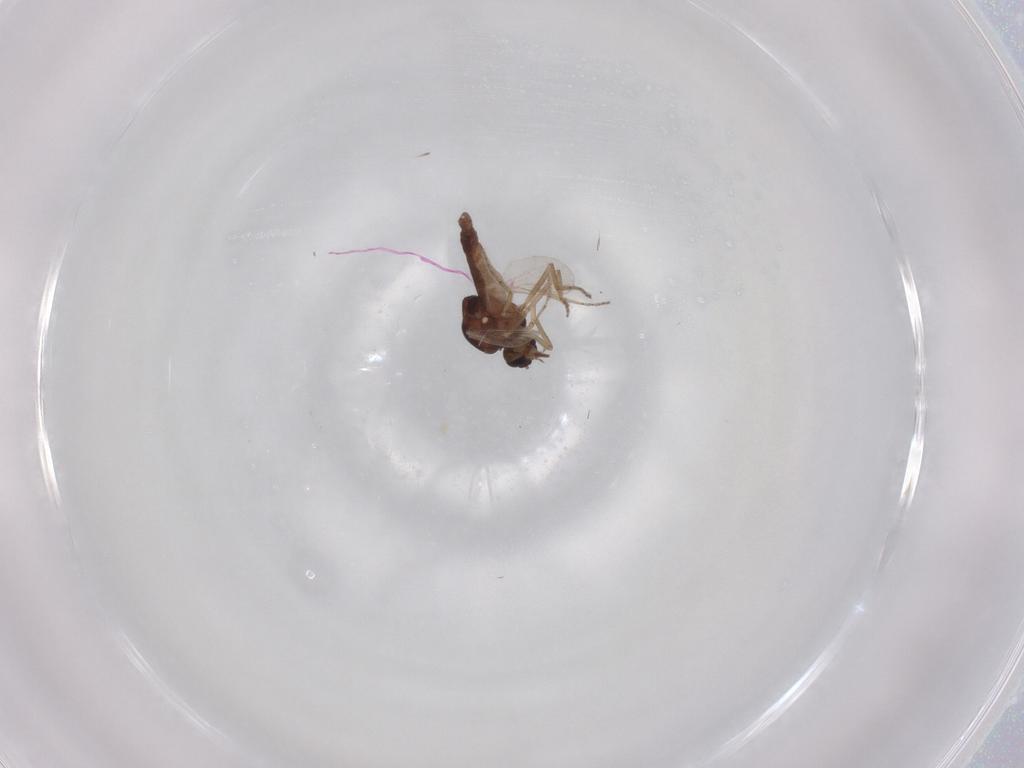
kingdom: Animalia
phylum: Arthropoda
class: Insecta
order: Diptera
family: Ceratopogonidae
